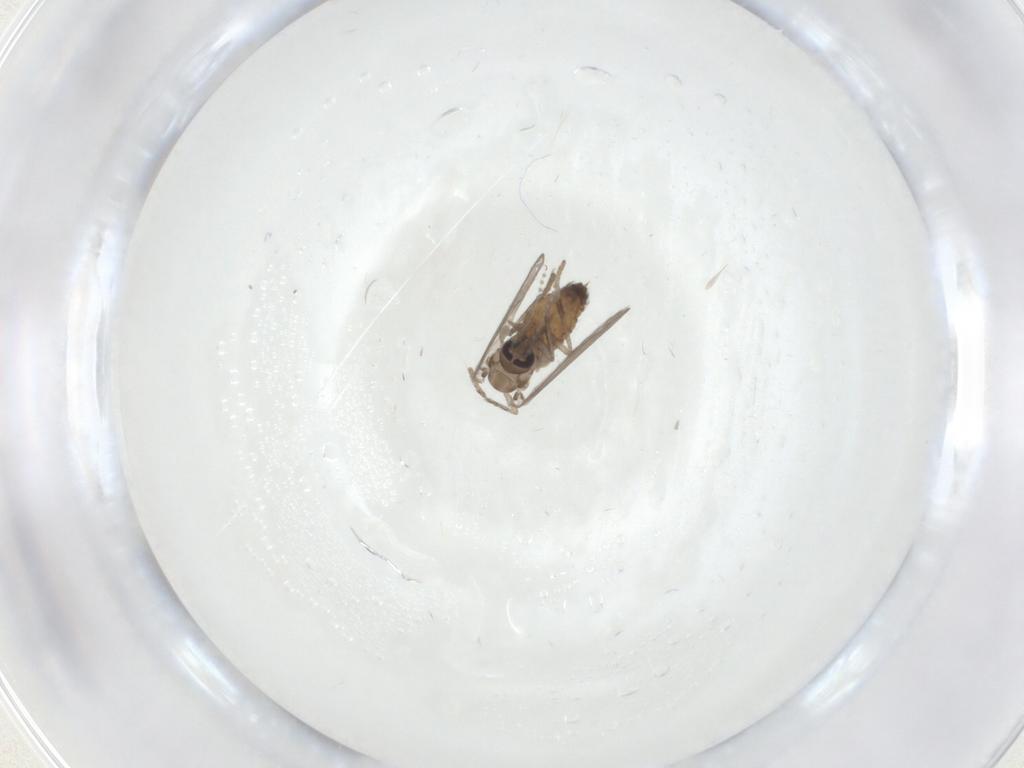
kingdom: Animalia
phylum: Arthropoda
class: Insecta
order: Diptera
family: Psychodidae
